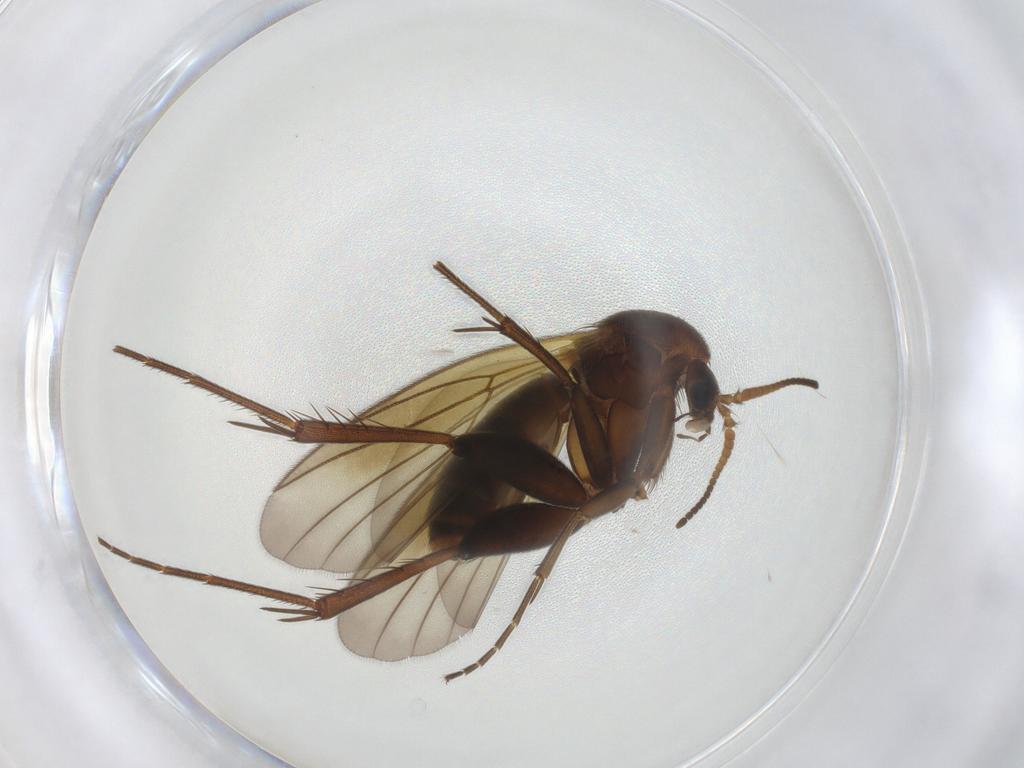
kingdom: Animalia
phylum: Arthropoda
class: Insecta
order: Diptera
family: Mycetophilidae
